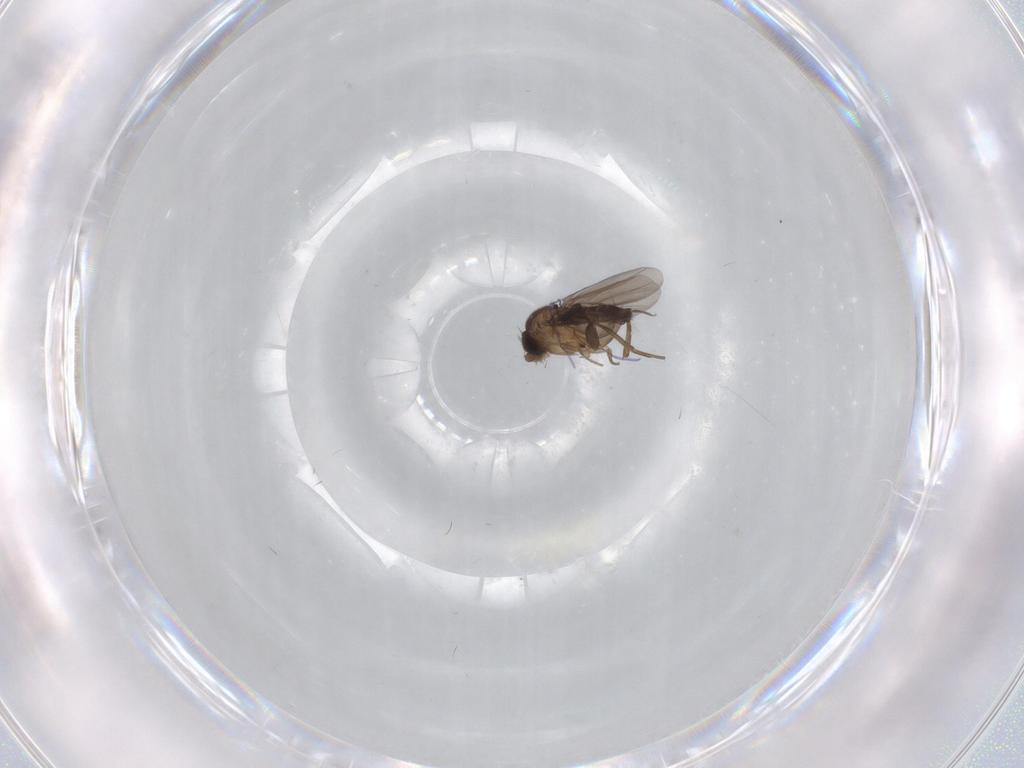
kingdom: Animalia
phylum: Arthropoda
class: Insecta
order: Diptera
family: Phoridae
